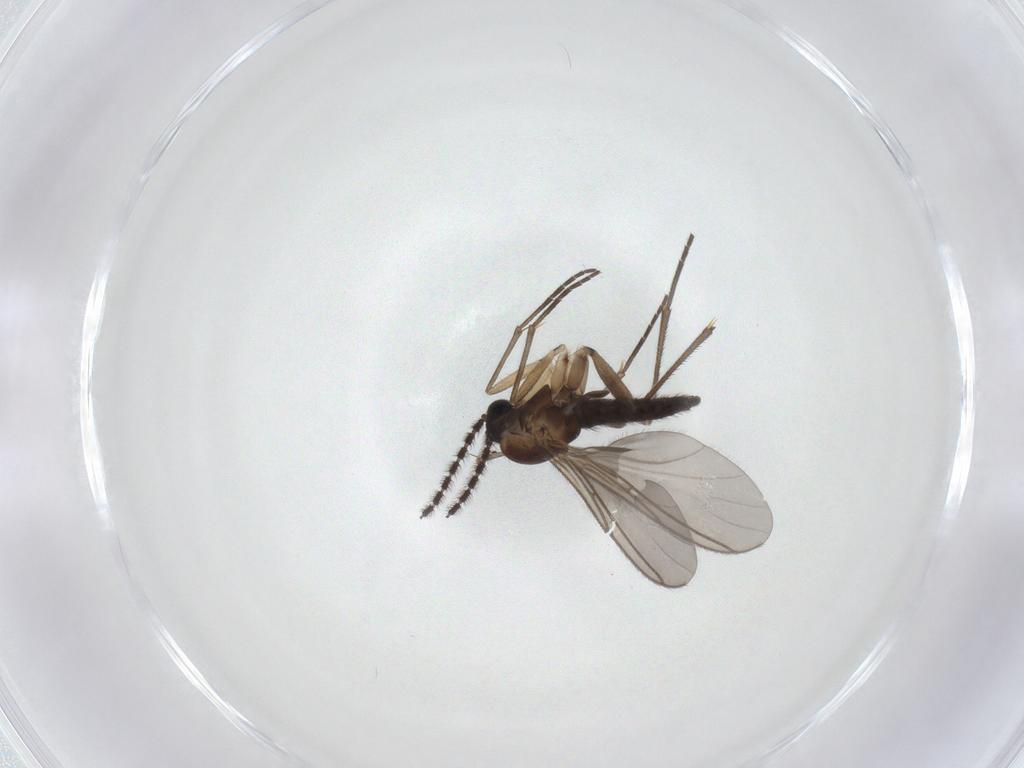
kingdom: Animalia
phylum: Arthropoda
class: Insecta
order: Diptera
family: Sciaridae
